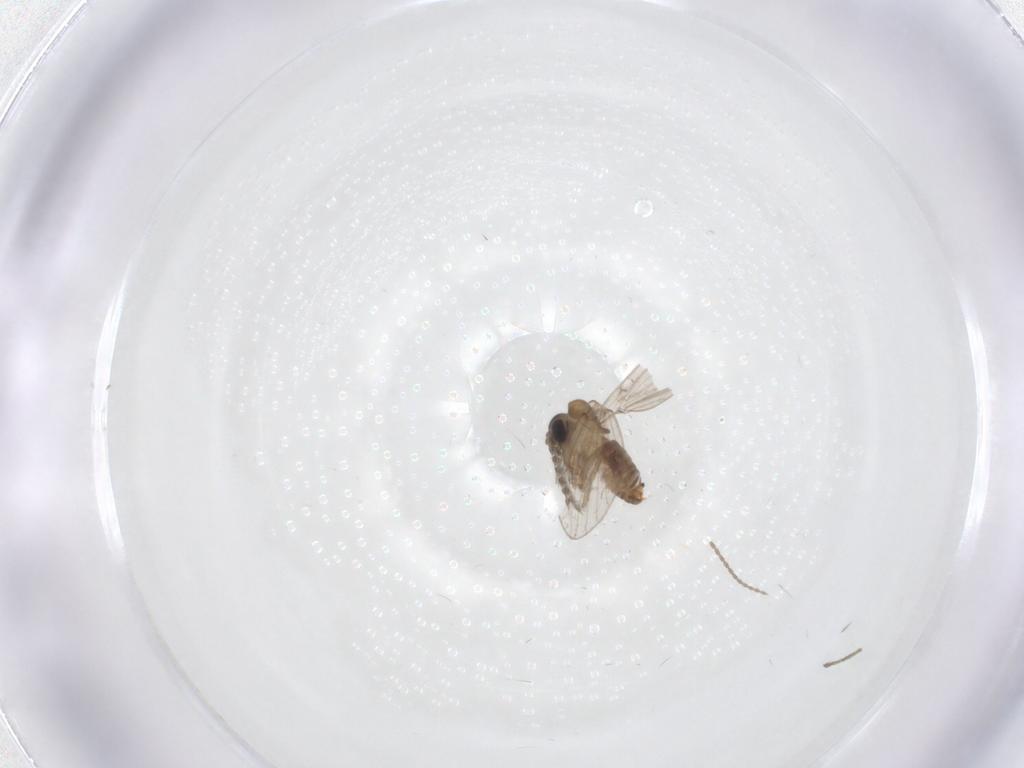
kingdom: Animalia
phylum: Arthropoda
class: Insecta
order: Diptera
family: Psychodidae
